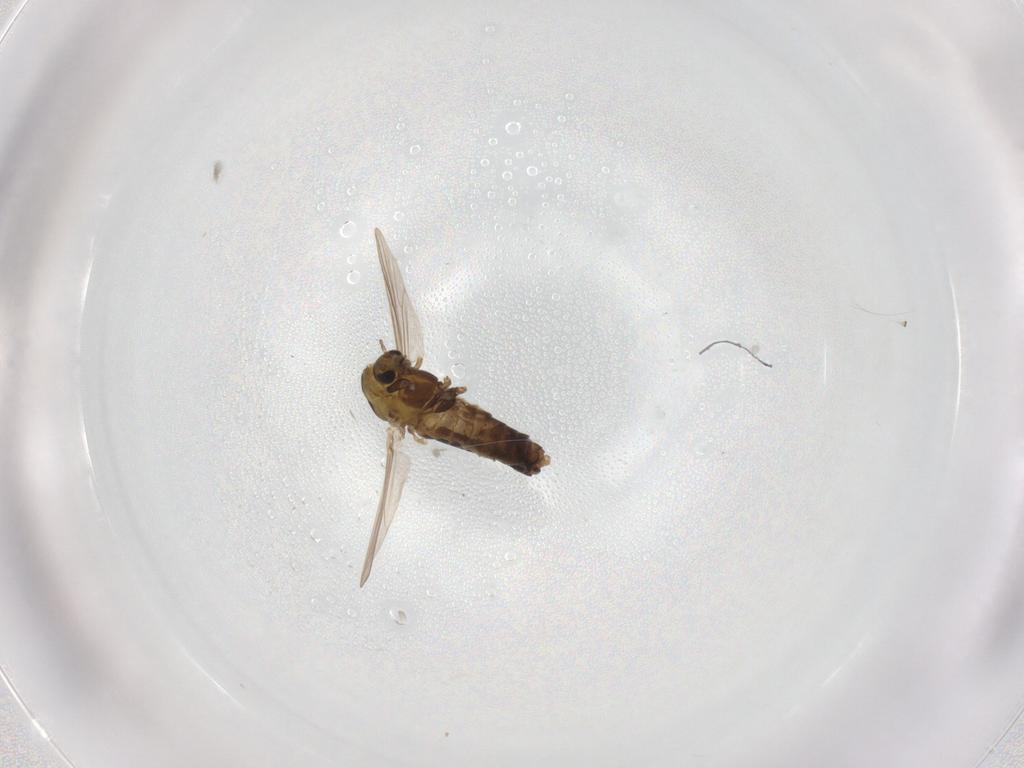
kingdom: Animalia
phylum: Arthropoda
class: Insecta
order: Diptera
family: Chironomidae
